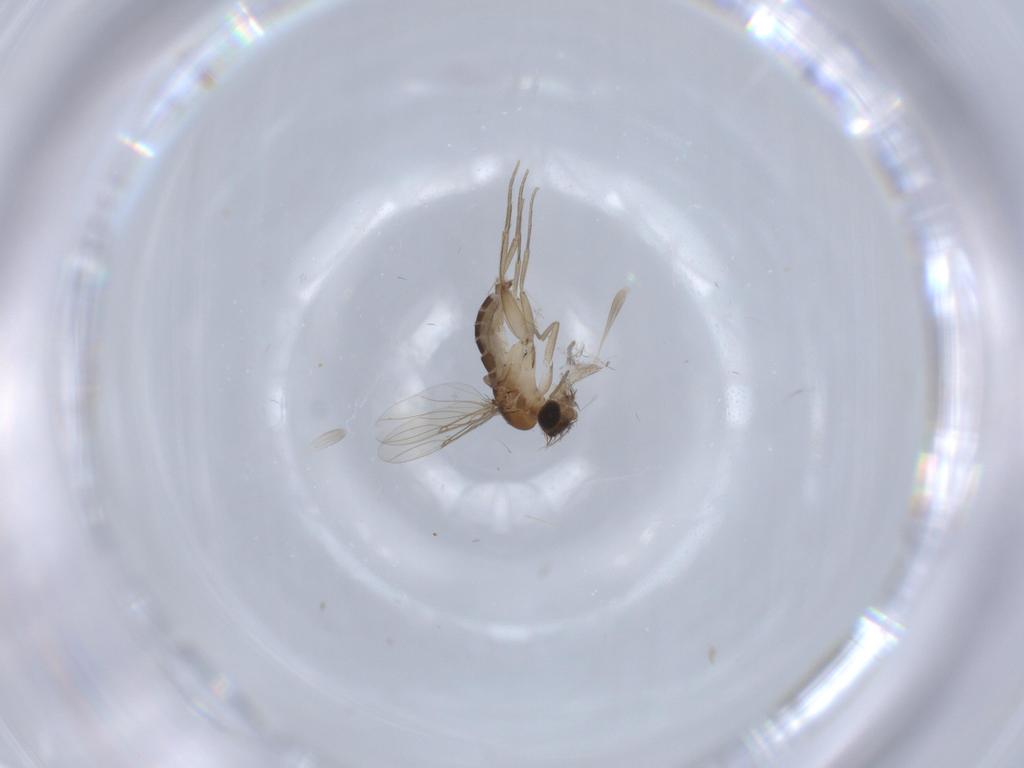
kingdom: Animalia
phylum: Arthropoda
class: Insecta
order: Diptera
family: Phoridae
